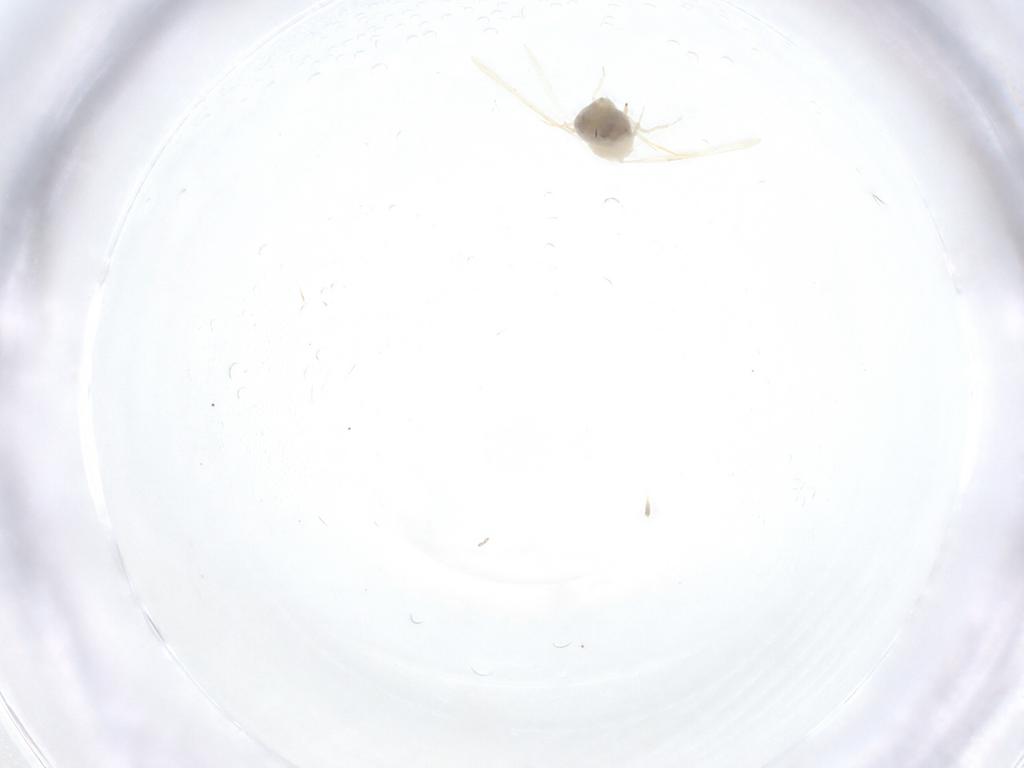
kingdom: Animalia
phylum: Arthropoda
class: Insecta
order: Hemiptera
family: Aleyrodidae
